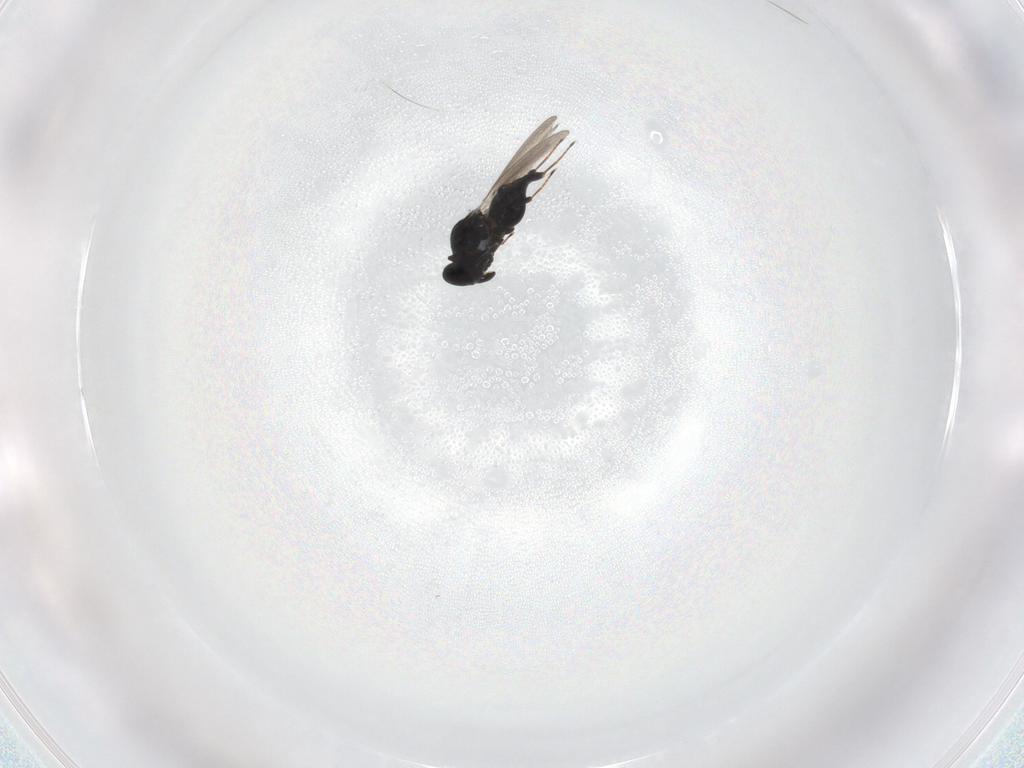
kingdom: Animalia
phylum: Arthropoda
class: Insecta
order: Hymenoptera
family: Platygastridae
